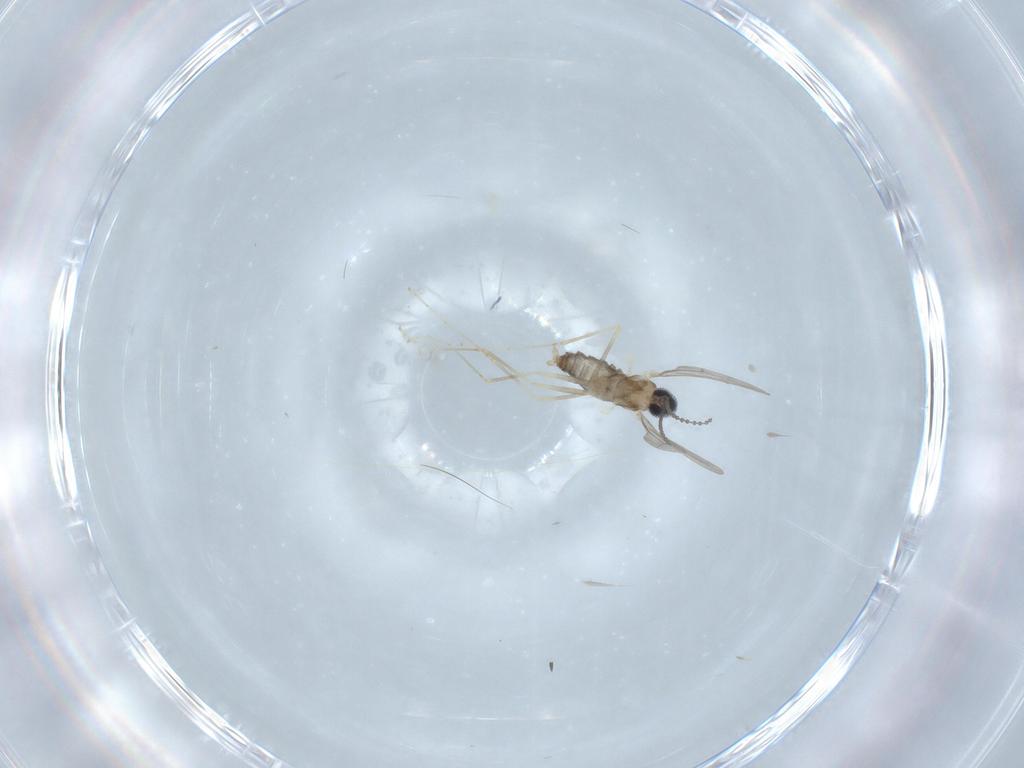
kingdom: Animalia
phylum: Arthropoda
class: Insecta
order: Diptera
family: Cecidomyiidae
